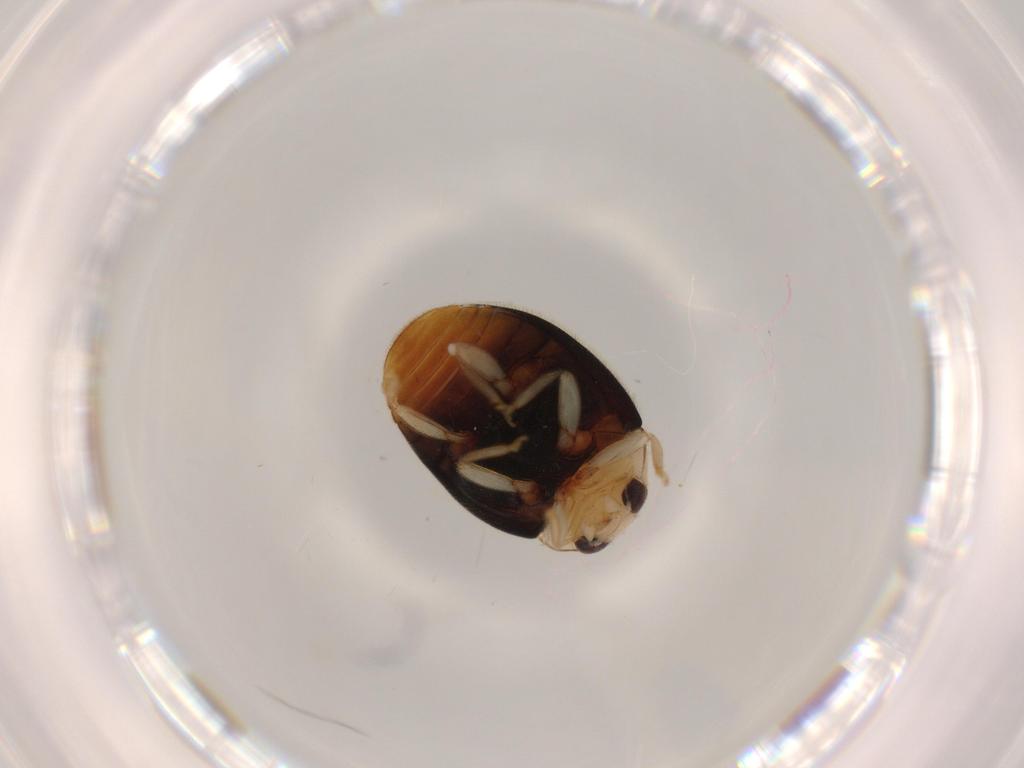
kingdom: Animalia
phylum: Arthropoda
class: Insecta
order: Coleoptera
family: Coccinellidae
